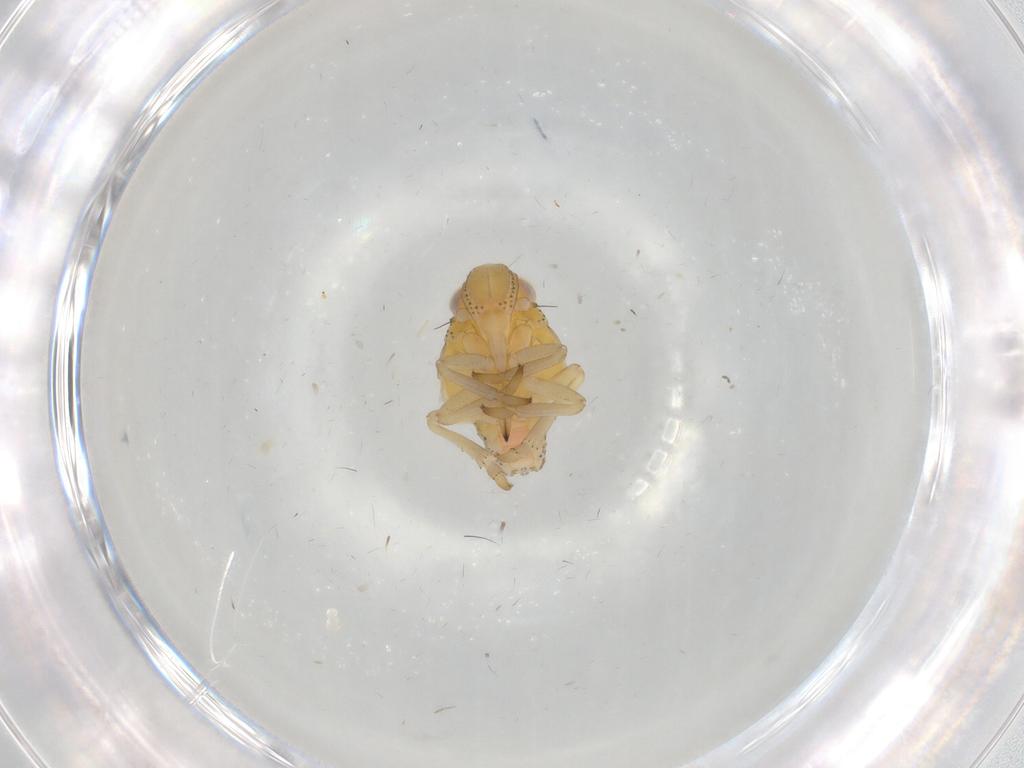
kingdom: Animalia
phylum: Arthropoda
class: Insecta
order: Hemiptera
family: Tropiduchidae
